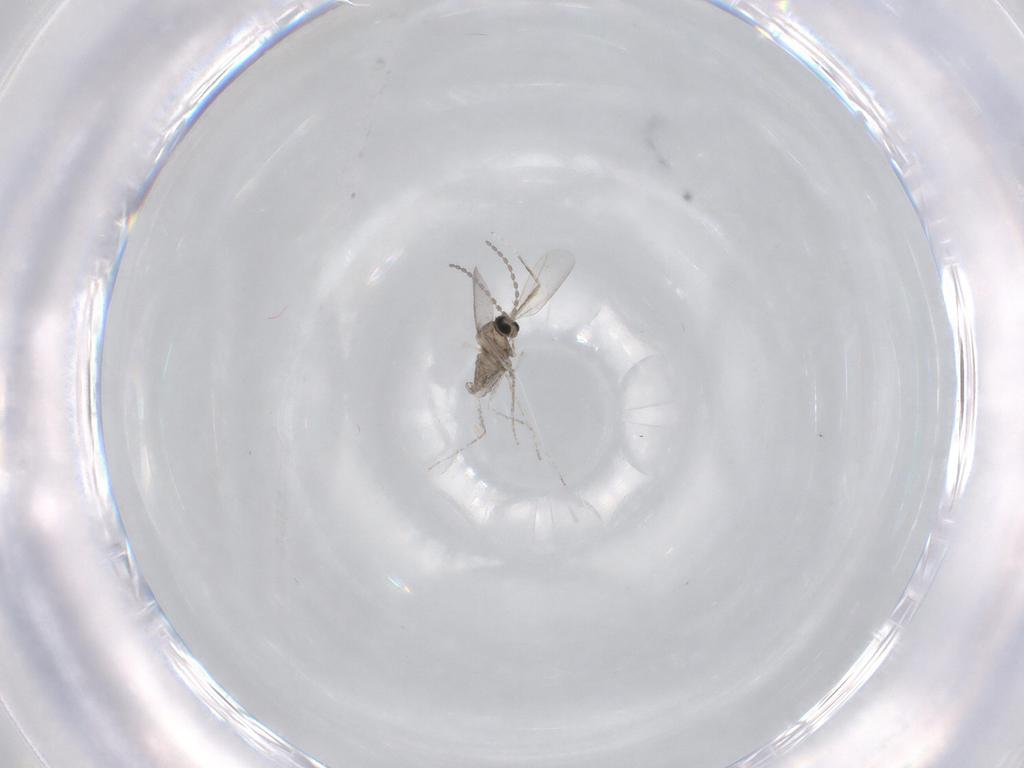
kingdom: Animalia
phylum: Arthropoda
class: Insecta
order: Diptera
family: Cecidomyiidae
